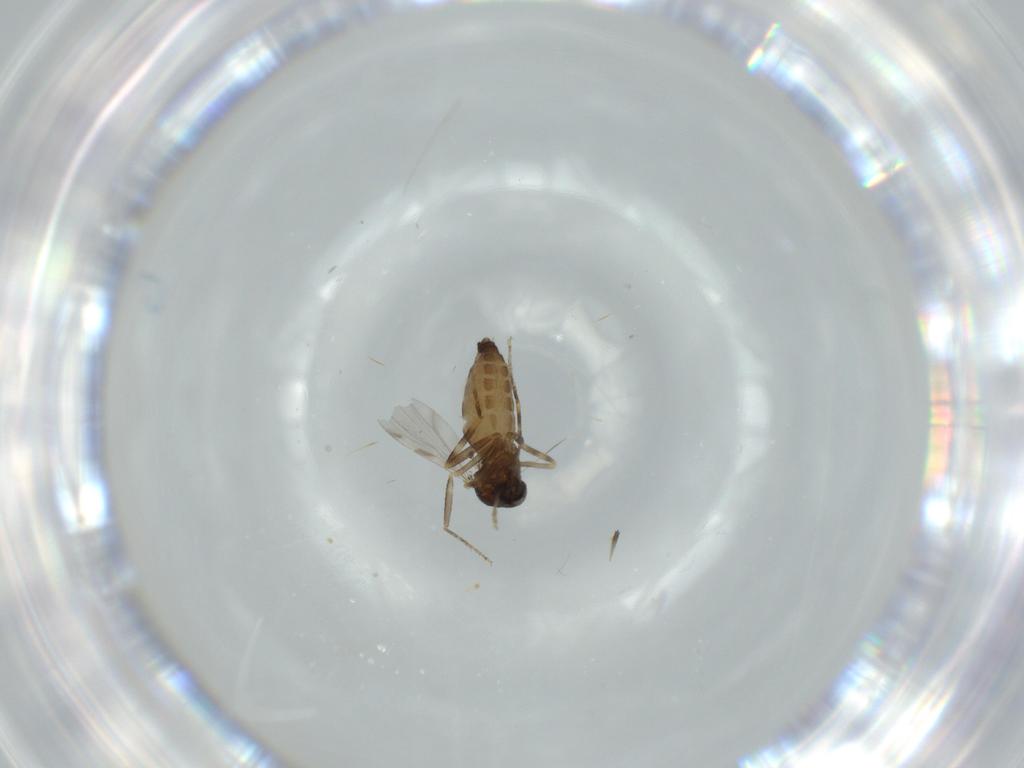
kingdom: Animalia
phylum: Arthropoda
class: Insecta
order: Diptera
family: Ceratopogonidae
